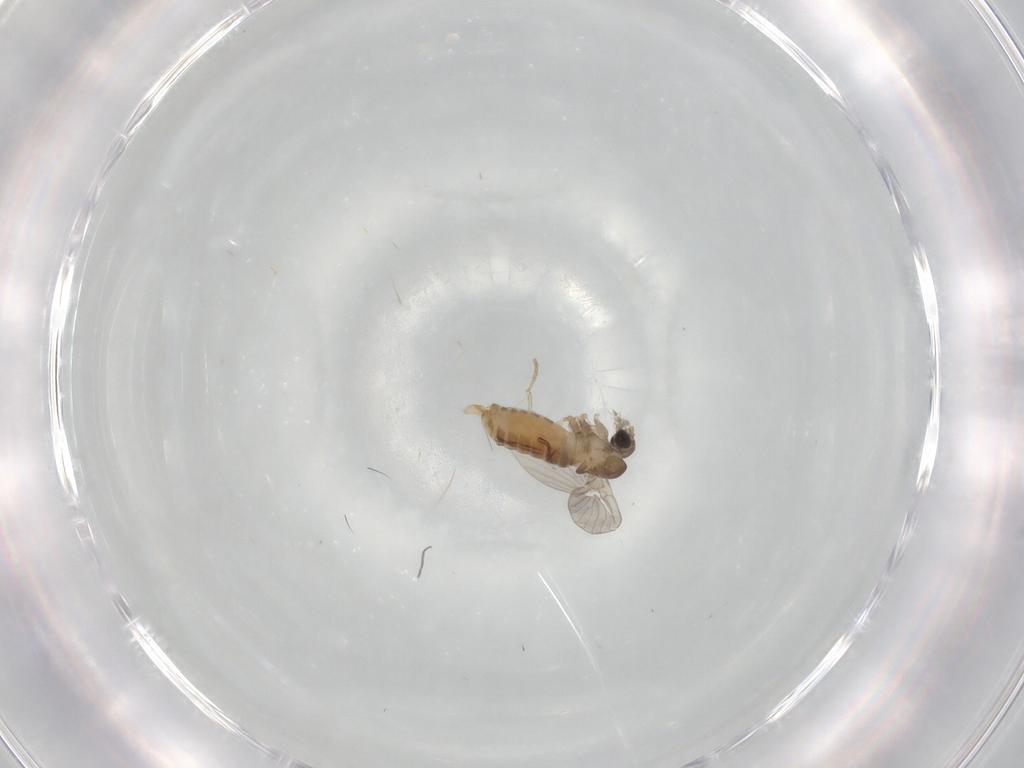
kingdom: Animalia
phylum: Arthropoda
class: Insecta
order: Diptera
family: Psychodidae
